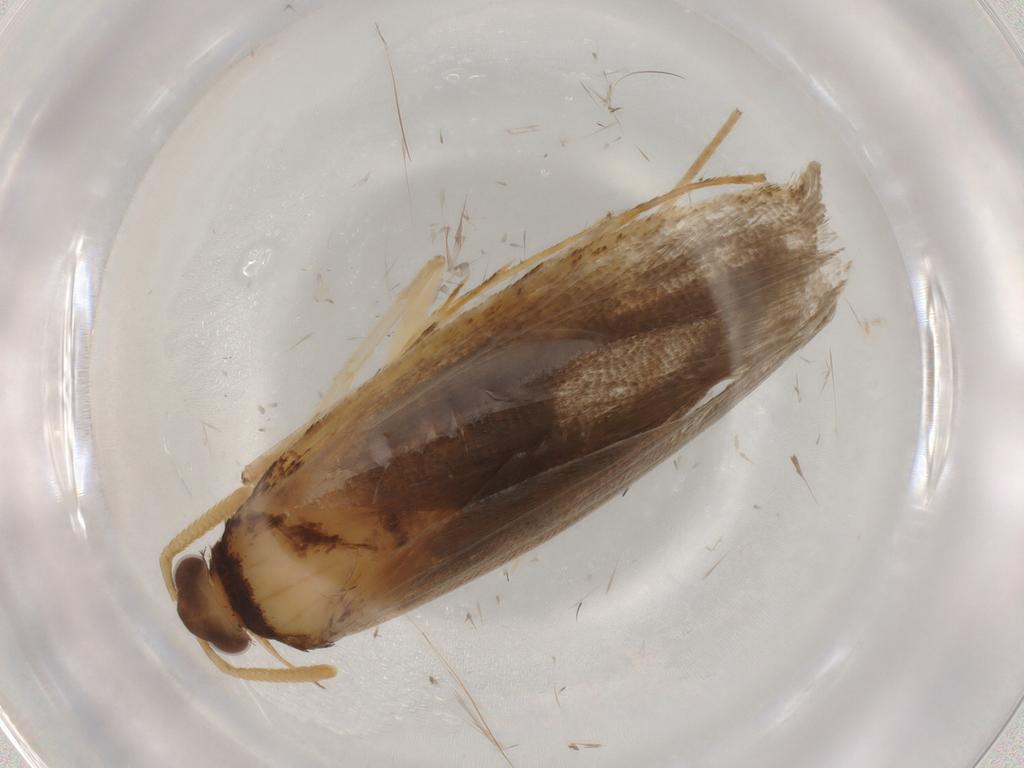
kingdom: Animalia
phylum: Arthropoda
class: Insecta
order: Lepidoptera
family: Lecithoceridae
